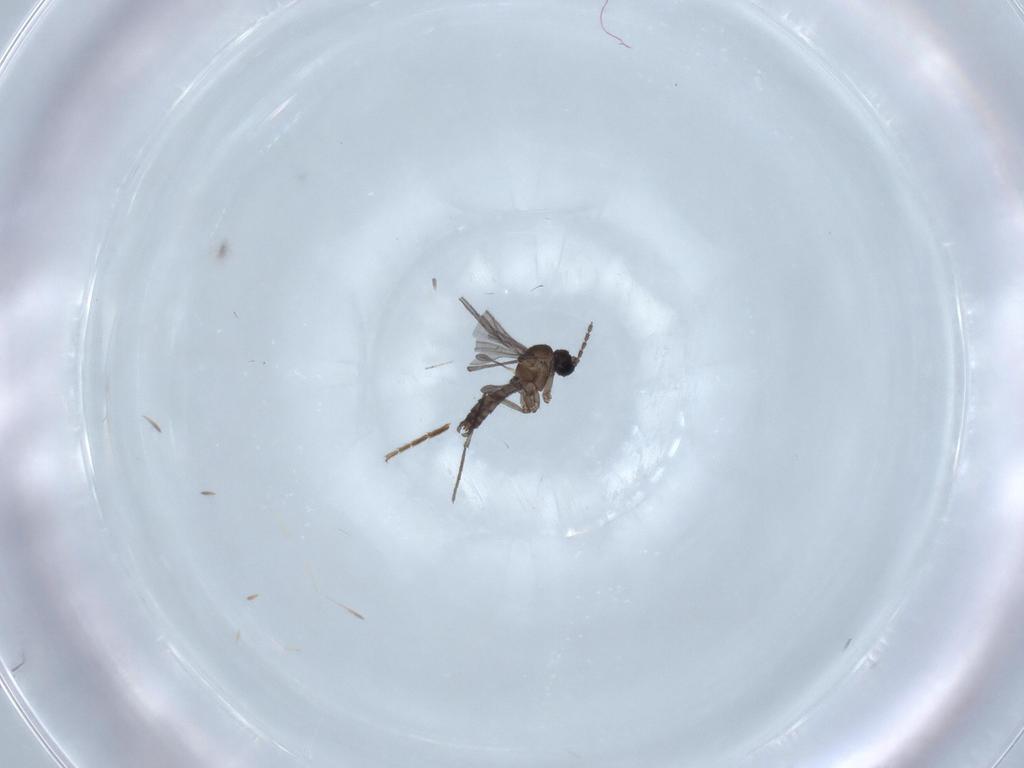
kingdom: Animalia
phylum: Arthropoda
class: Insecta
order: Diptera
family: Sciaridae
